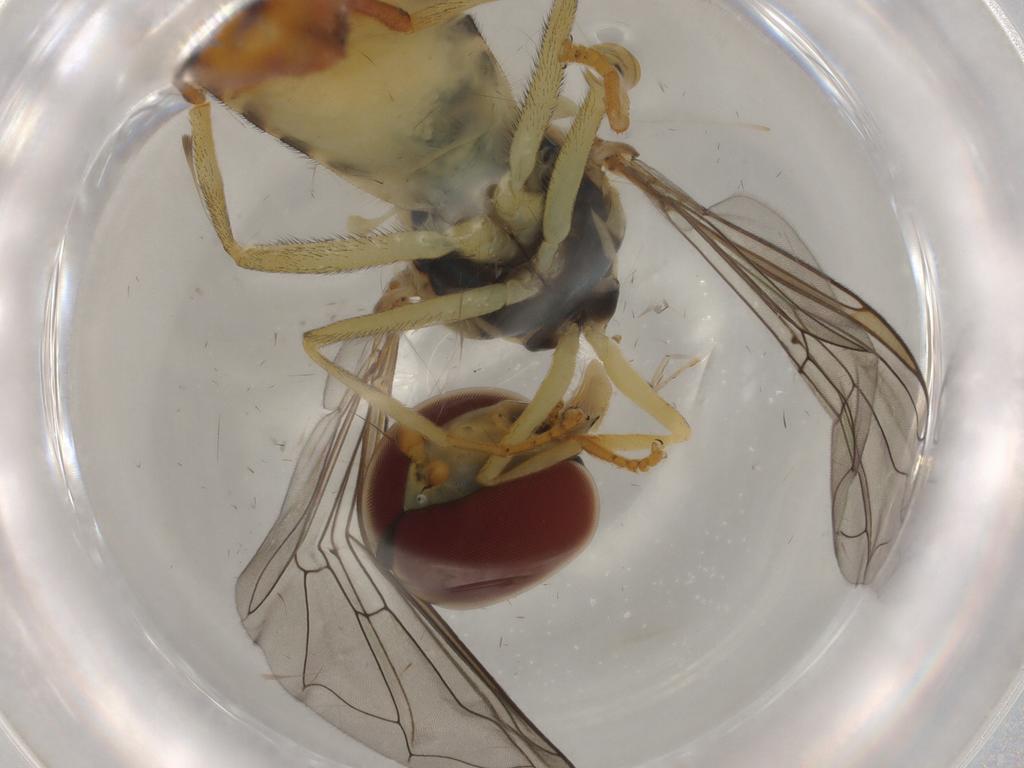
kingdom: Animalia
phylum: Arthropoda
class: Insecta
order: Diptera
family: Syrphidae
